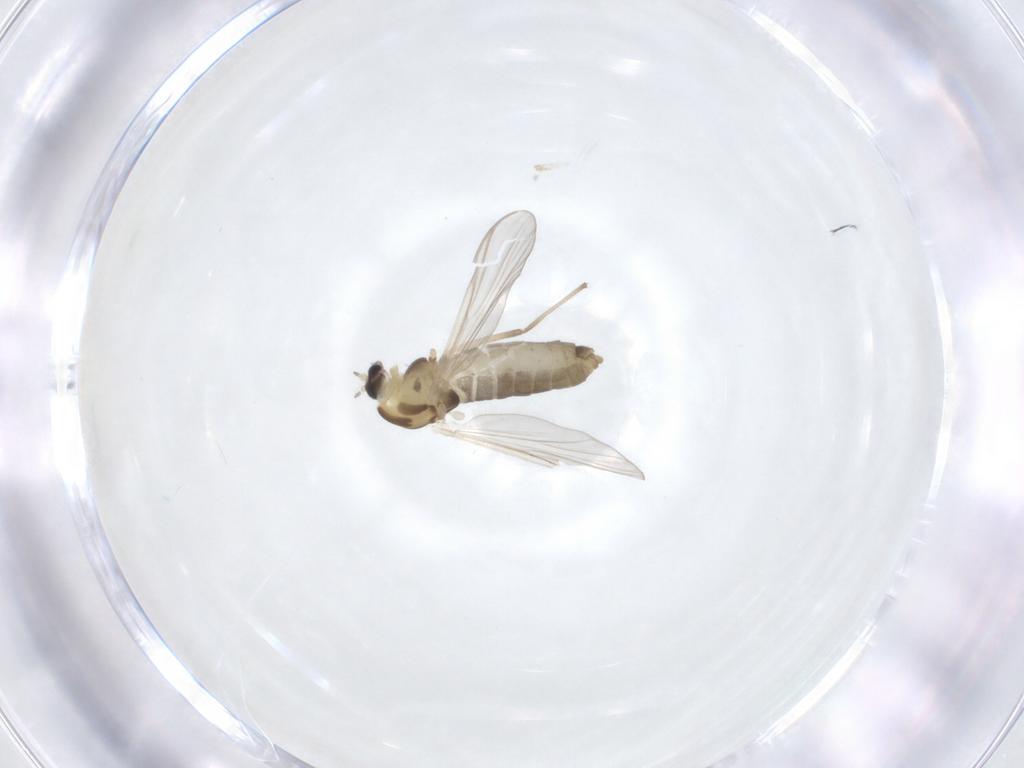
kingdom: Animalia
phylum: Arthropoda
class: Insecta
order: Diptera
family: Chironomidae
